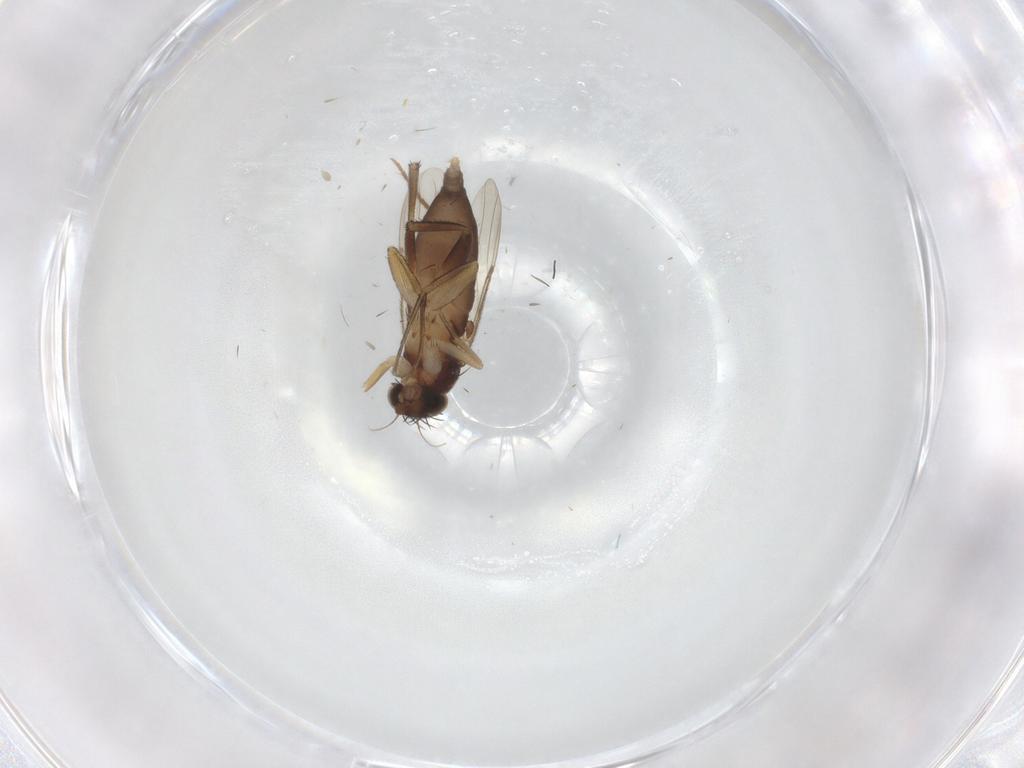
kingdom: Animalia
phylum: Arthropoda
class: Insecta
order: Diptera
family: Phoridae
